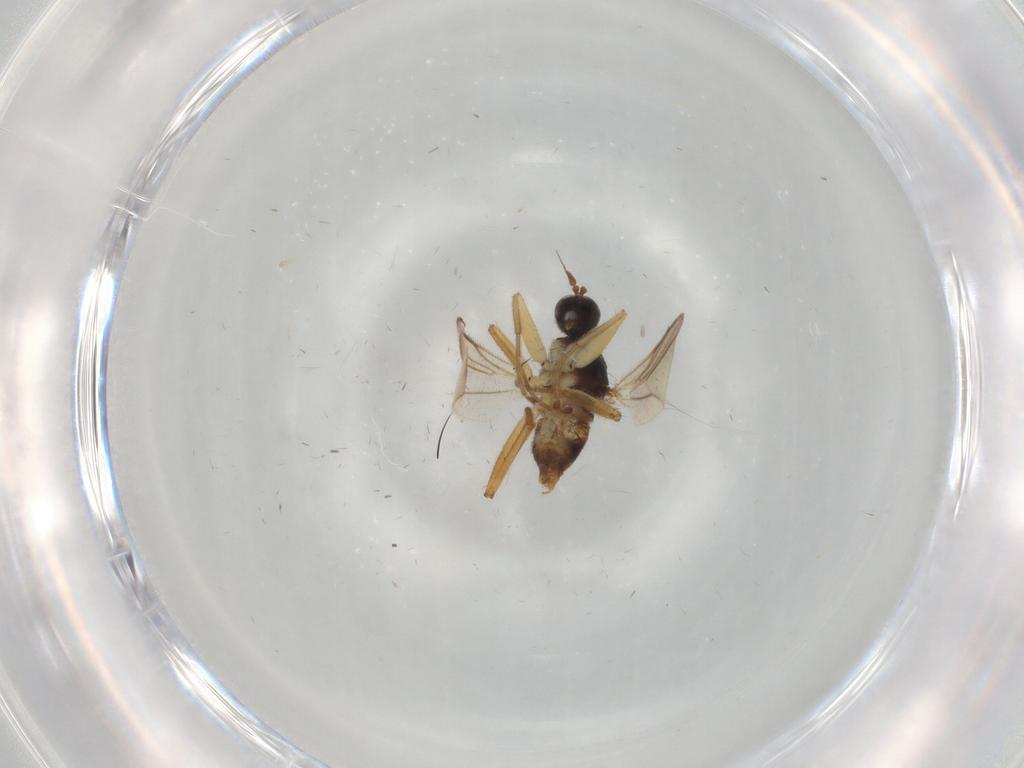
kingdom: Animalia
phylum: Arthropoda
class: Insecta
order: Diptera
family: Hybotidae
